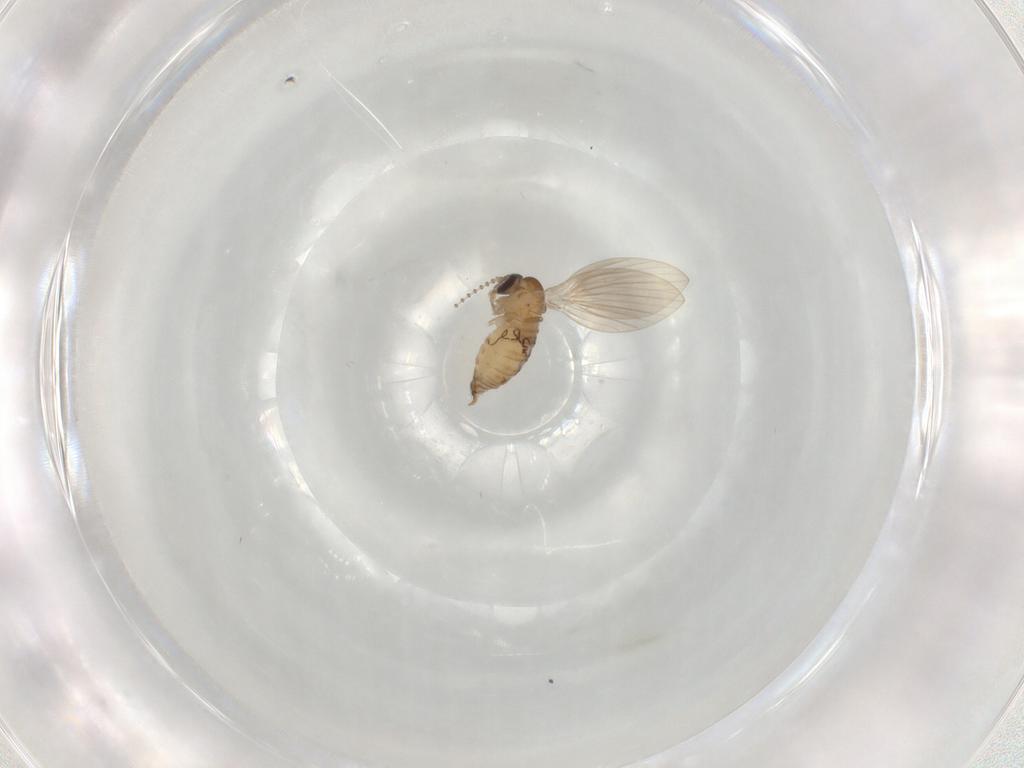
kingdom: Animalia
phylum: Arthropoda
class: Insecta
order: Diptera
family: Psychodidae
